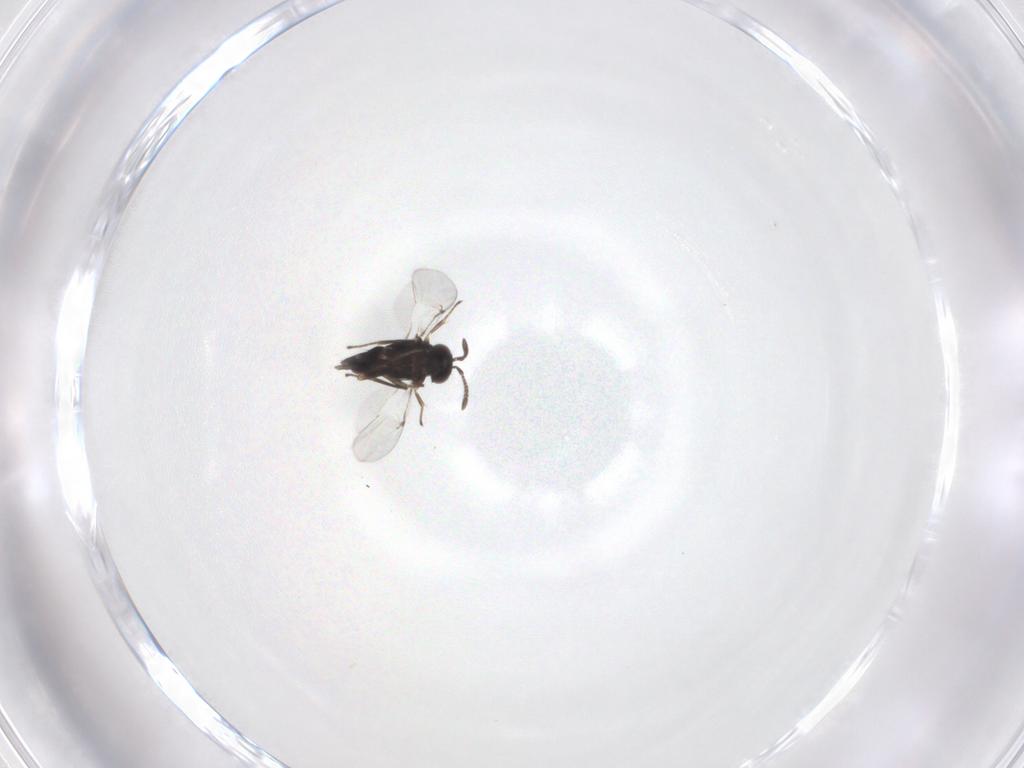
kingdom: Animalia
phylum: Arthropoda
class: Insecta
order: Hymenoptera
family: Encyrtidae
